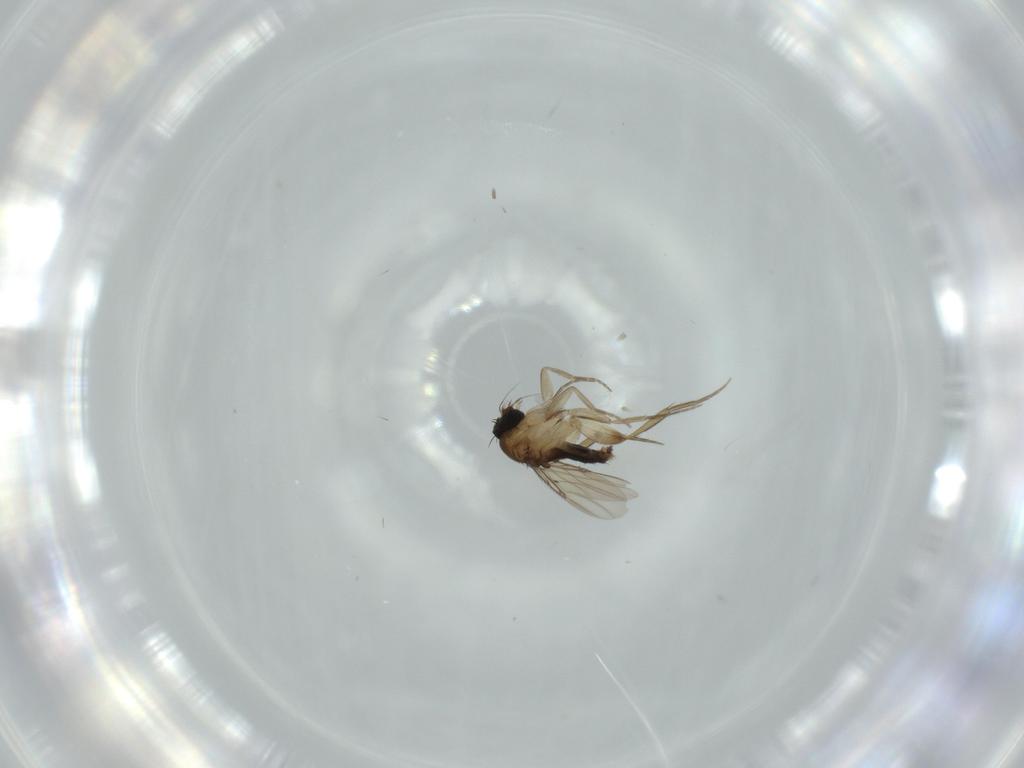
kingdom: Animalia
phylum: Arthropoda
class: Insecta
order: Diptera
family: Phoridae
